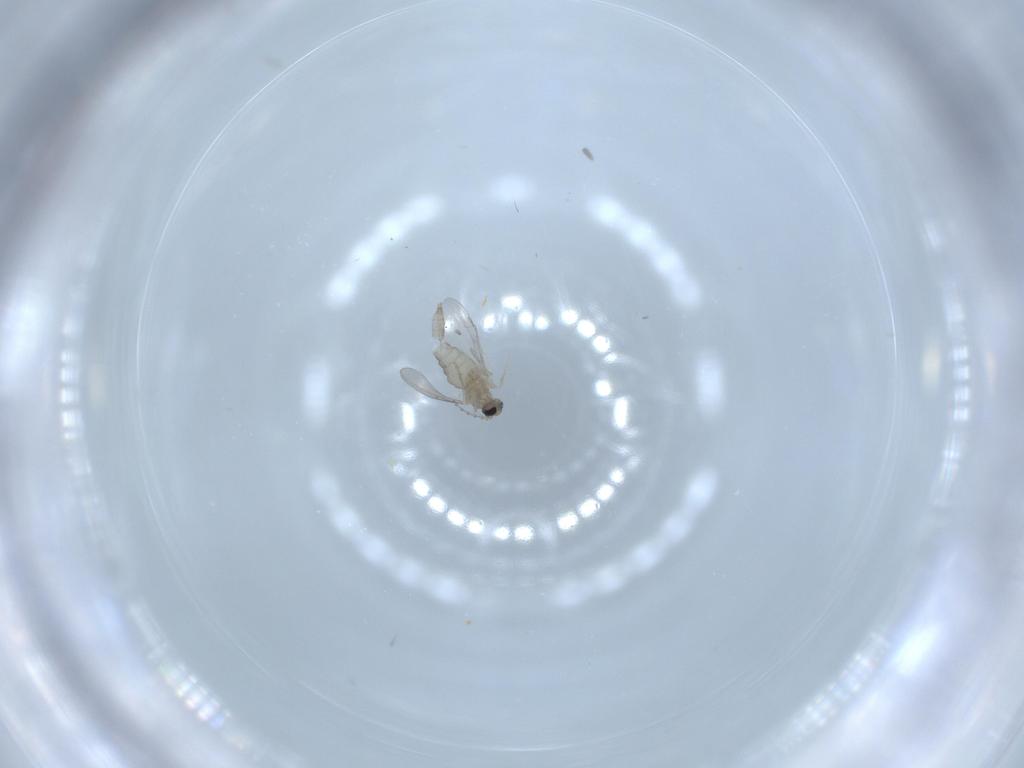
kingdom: Animalia
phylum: Arthropoda
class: Insecta
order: Diptera
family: Cecidomyiidae
